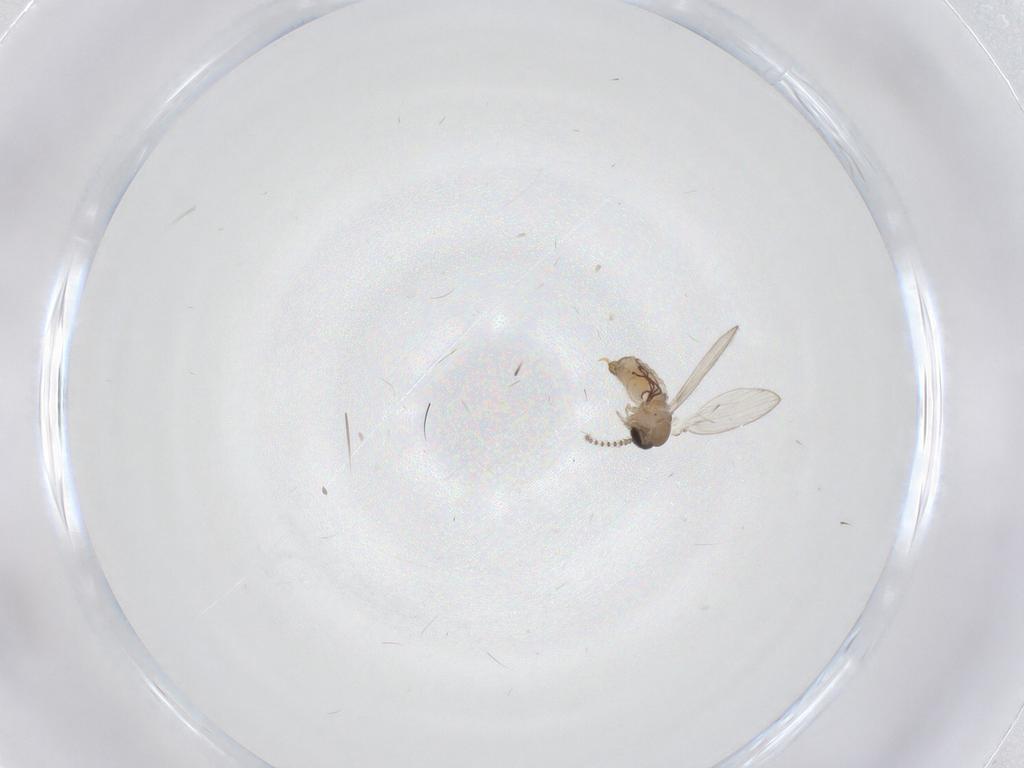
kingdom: Animalia
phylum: Arthropoda
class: Insecta
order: Diptera
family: Psychodidae
